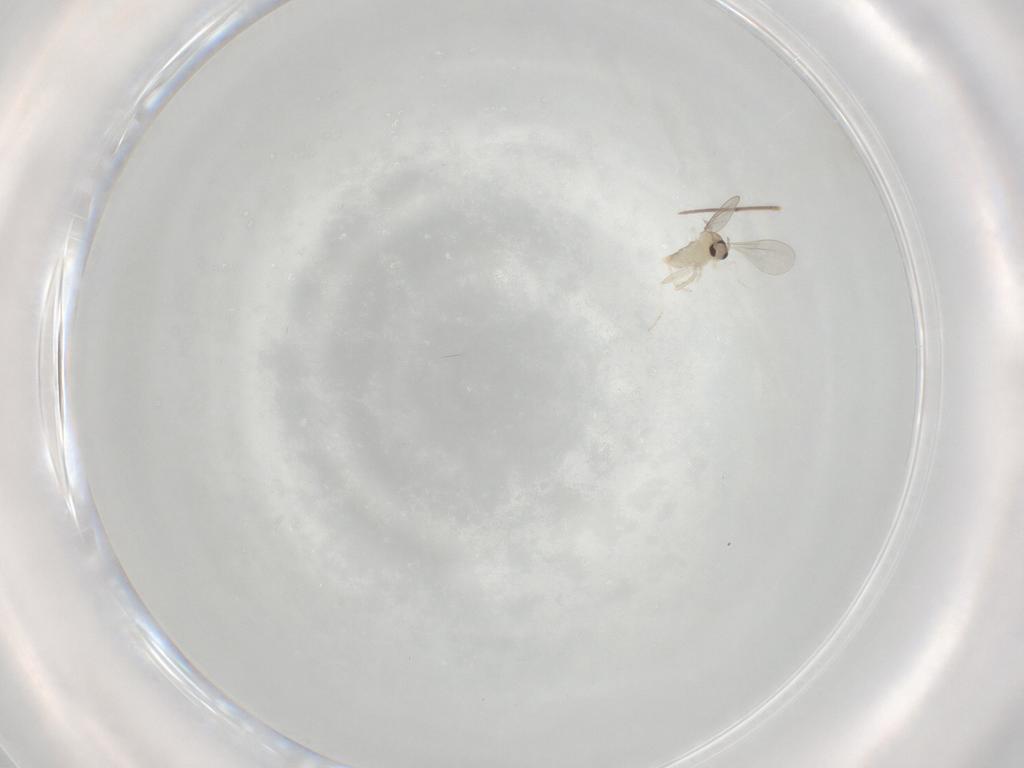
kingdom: Animalia
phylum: Arthropoda
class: Insecta
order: Diptera
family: Cecidomyiidae
